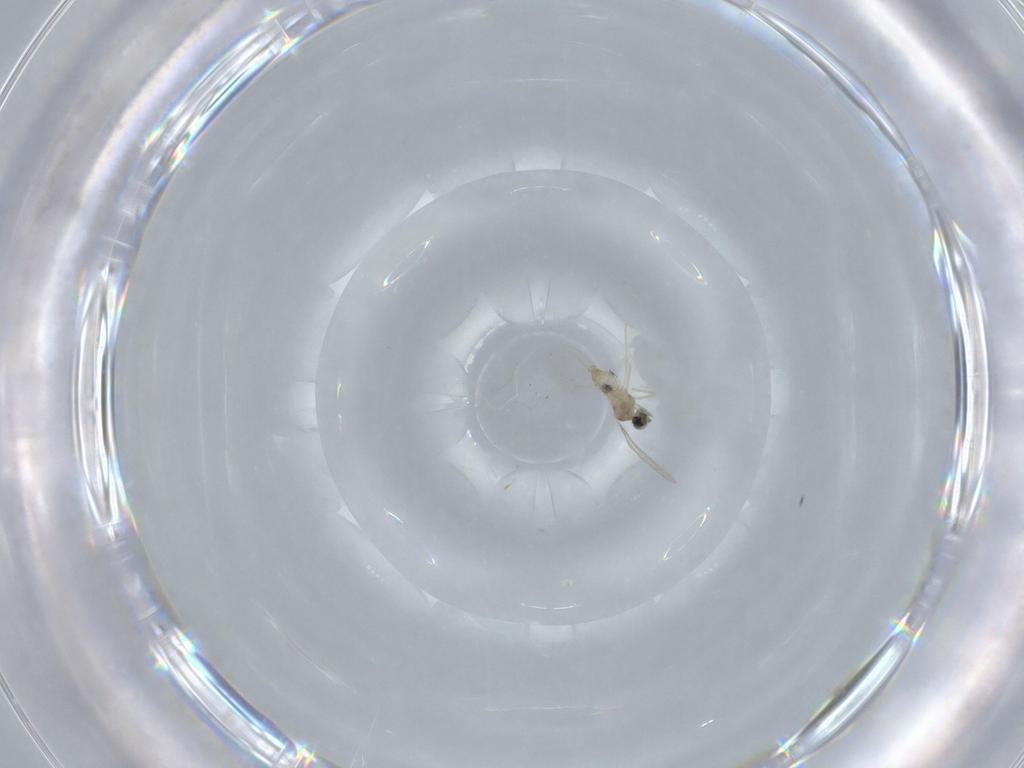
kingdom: Animalia
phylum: Arthropoda
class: Insecta
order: Diptera
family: Cecidomyiidae
